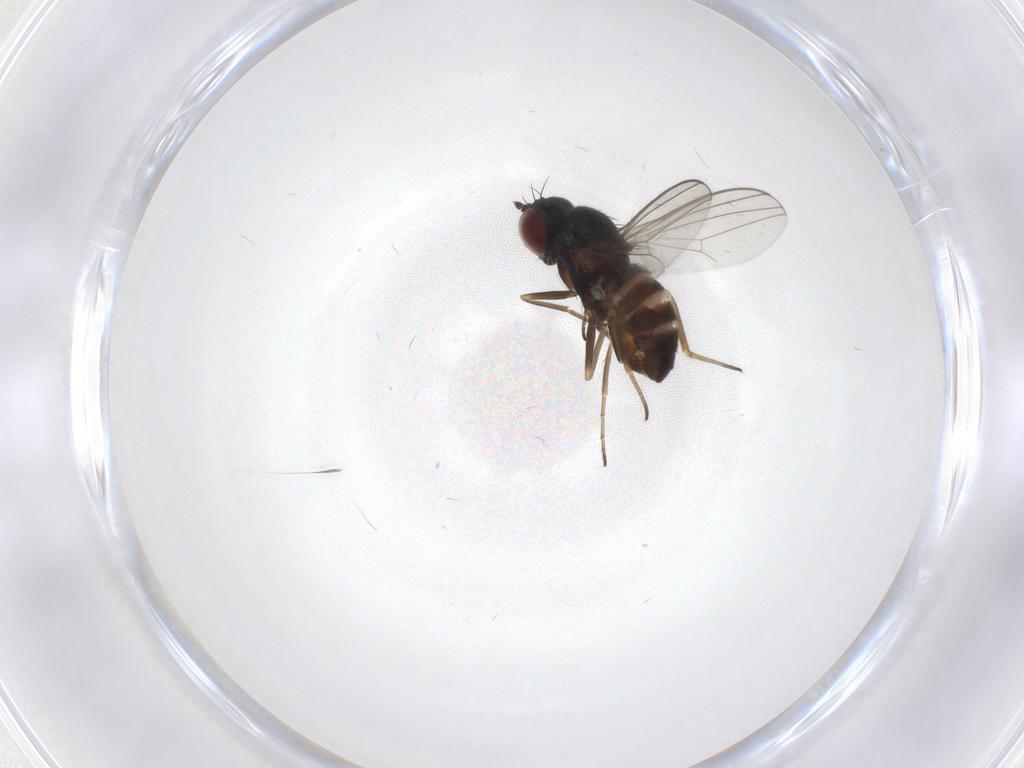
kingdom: Animalia
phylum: Arthropoda
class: Insecta
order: Diptera
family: Dolichopodidae
